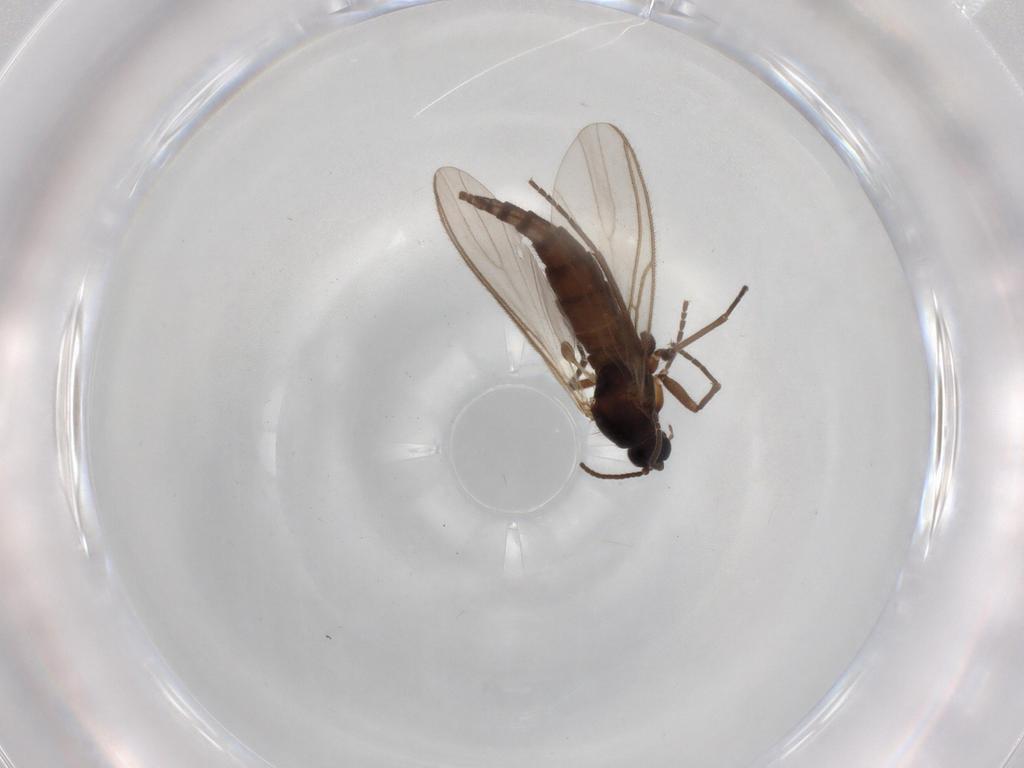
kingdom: Animalia
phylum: Arthropoda
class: Insecta
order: Diptera
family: Sciaridae
